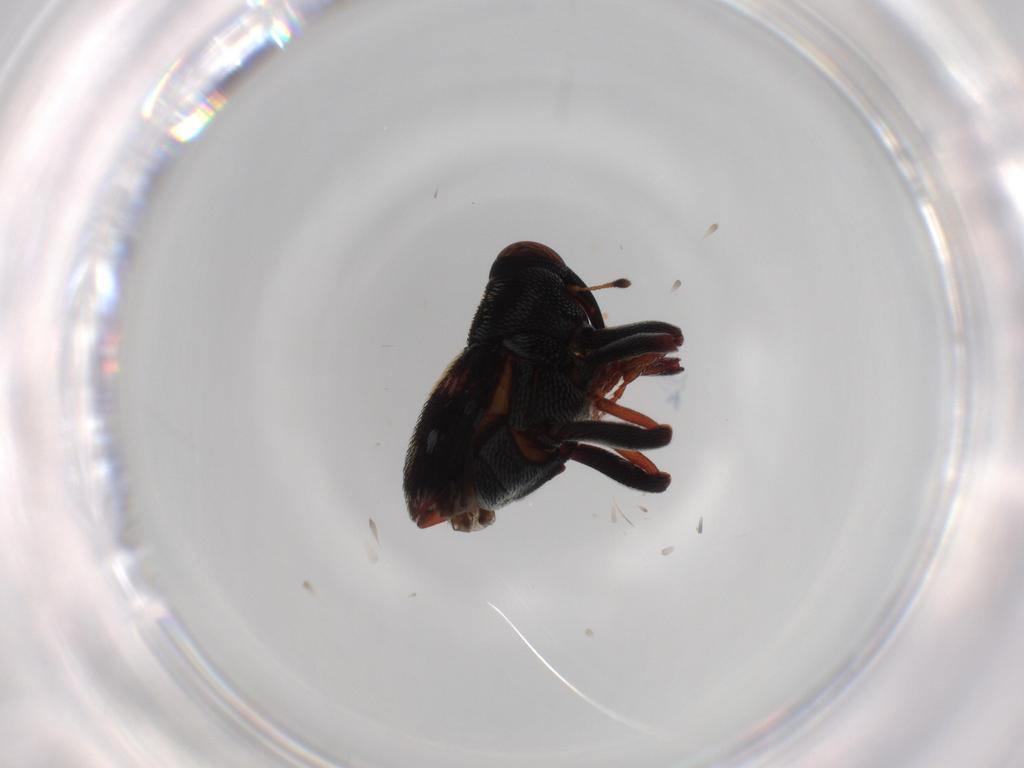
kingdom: Animalia
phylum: Arthropoda
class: Insecta
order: Coleoptera
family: Curculionidae
